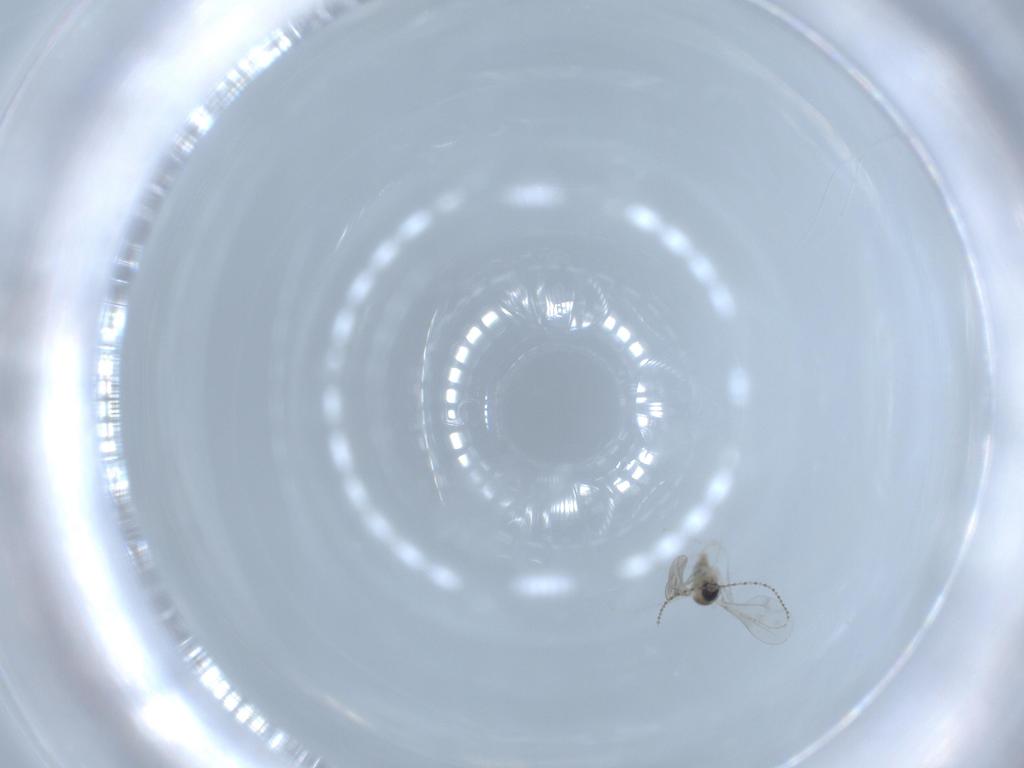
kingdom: Animalia
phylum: Arthropoda
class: Insecta
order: Diptera
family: Cecidomyiidae
